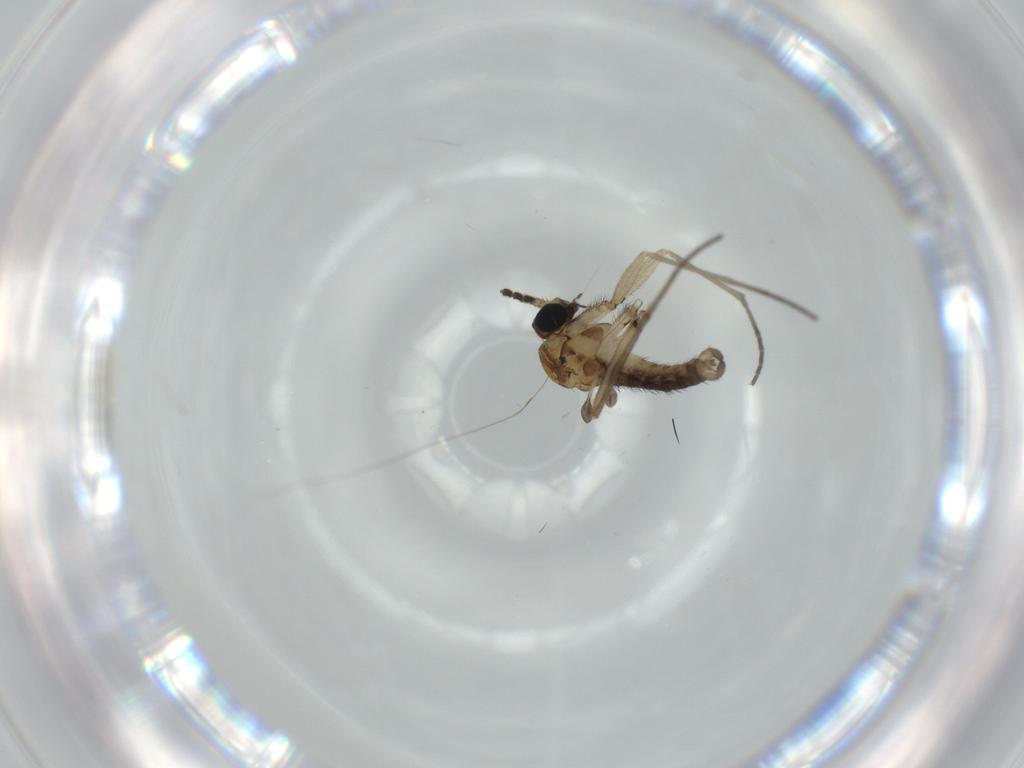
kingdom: Animalia
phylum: Arthropoda
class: Insecta
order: Diptera
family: Sciaridae
